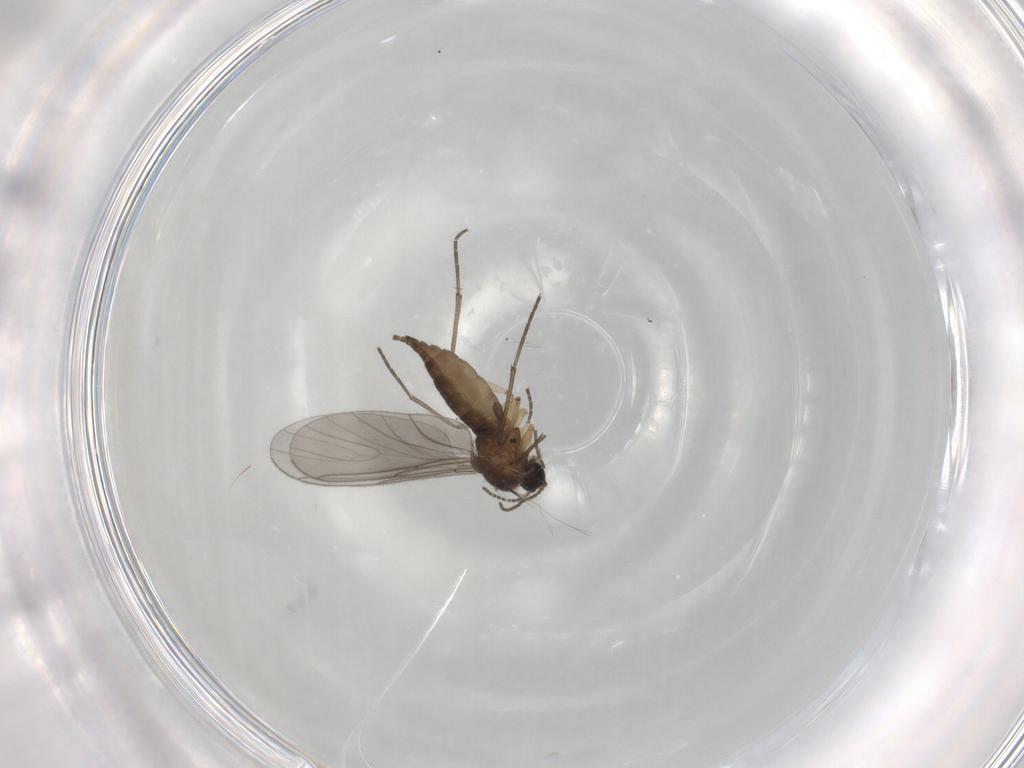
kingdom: Animalia
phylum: Arthropoda
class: Insecta
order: Diptera
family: Sciaridae
